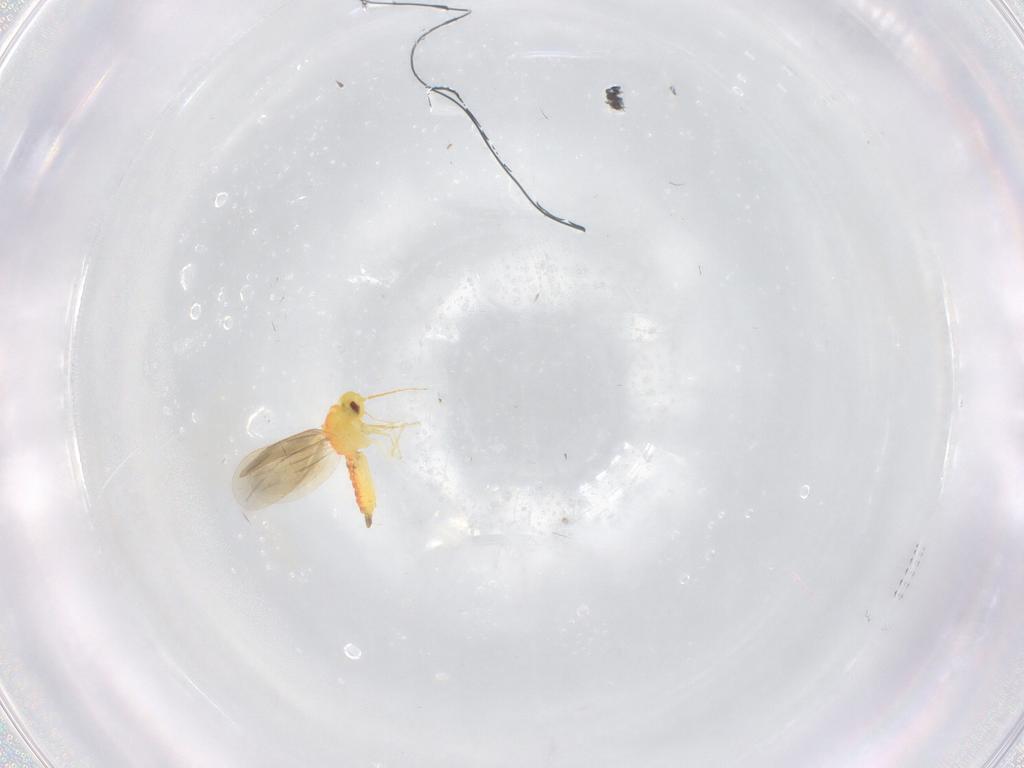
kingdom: Animalia
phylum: Arthropoda
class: Insecta
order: Hemiptera
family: Aleyrodidae
